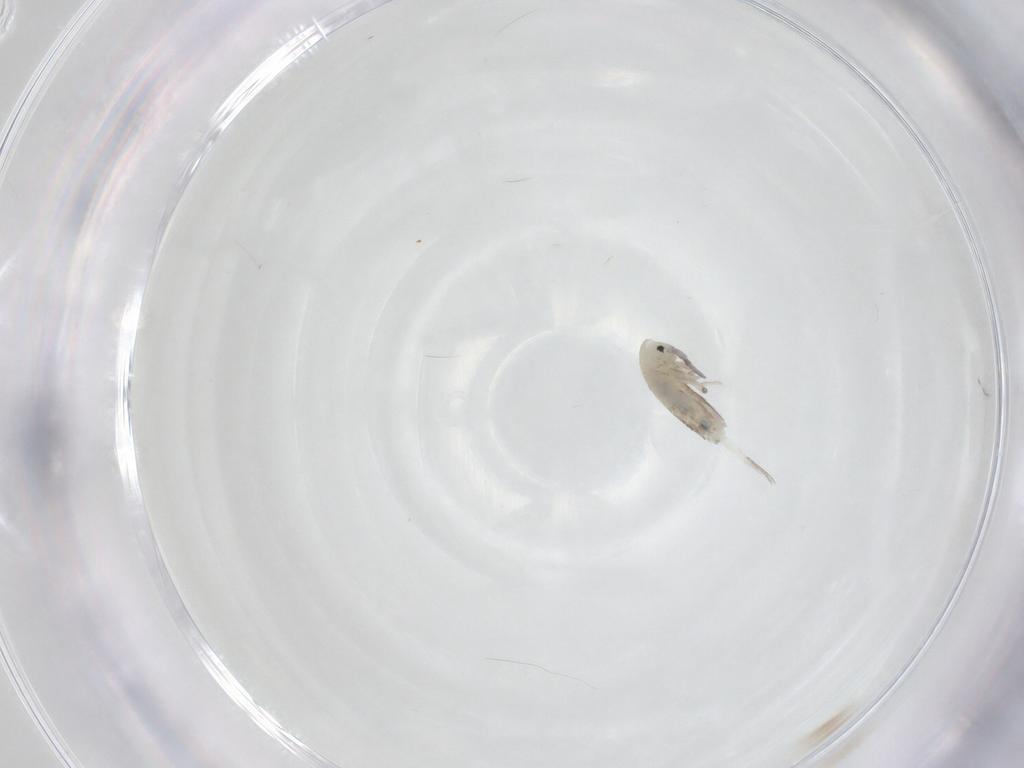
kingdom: Animalia
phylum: Arthropoda
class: Collembola
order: Entomobryomorpha
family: Entomobryidae
